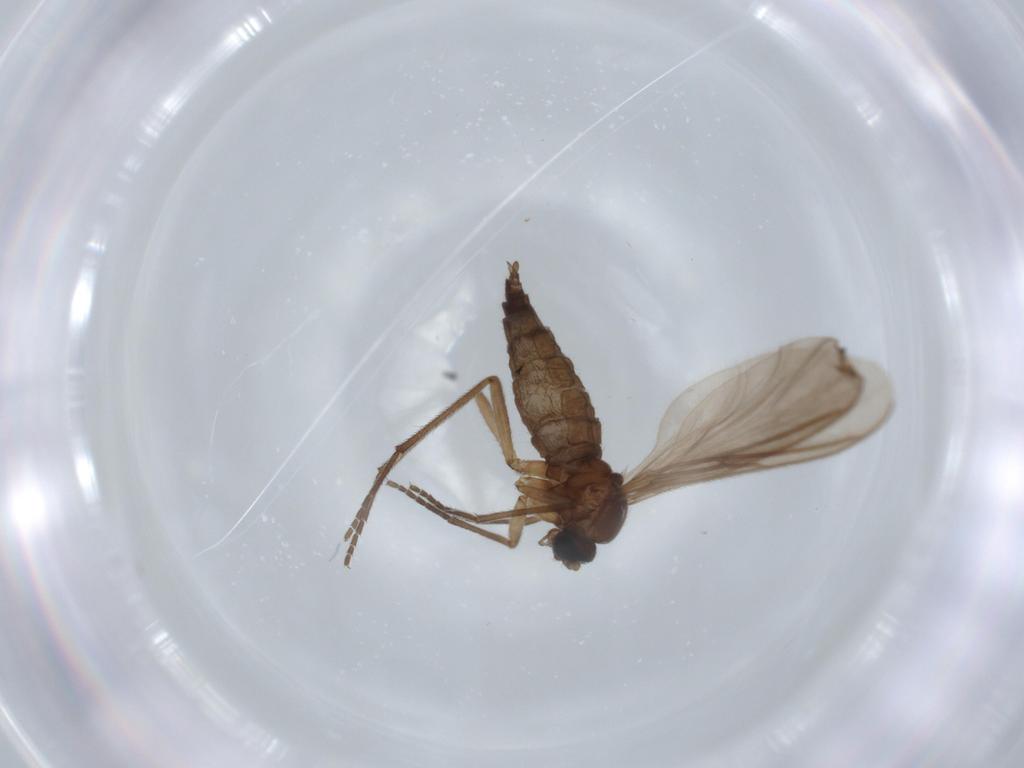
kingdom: Animalia
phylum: Arthropoda
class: Insecta
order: Diptera
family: Sciaridae
